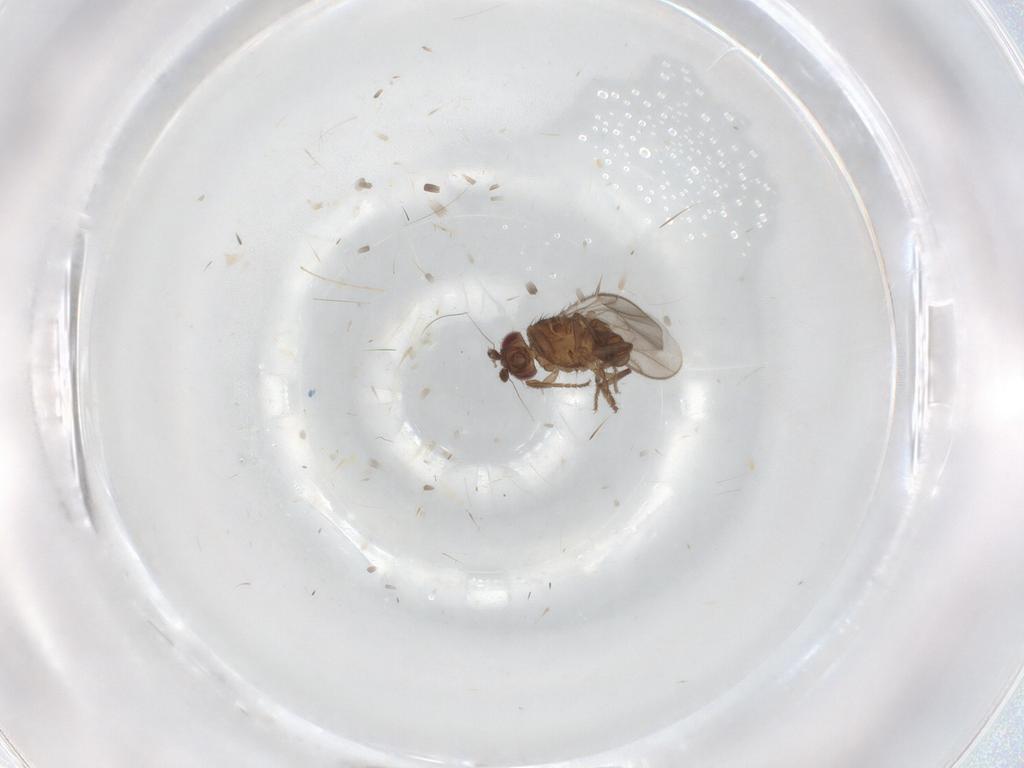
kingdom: Animalia
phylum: Arthropoda
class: Insecta
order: Diptera
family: Sphaeroceridae
